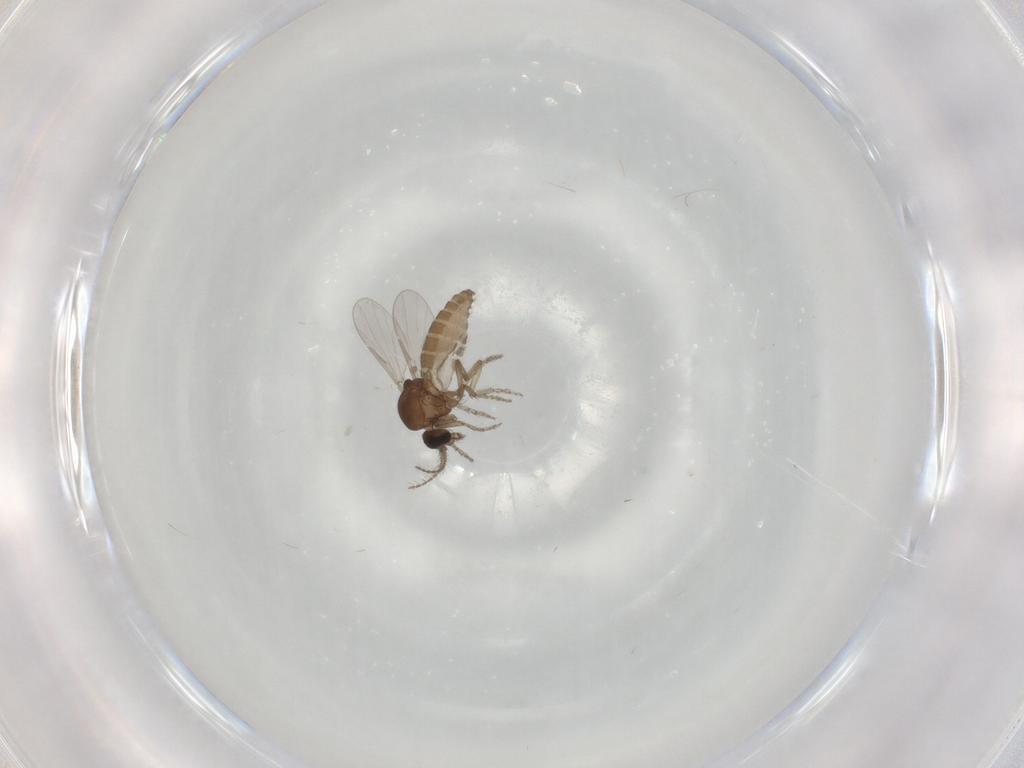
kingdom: Animalia
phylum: Arthropoda
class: Insecta
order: Diptera
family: Ceratopogonidae
